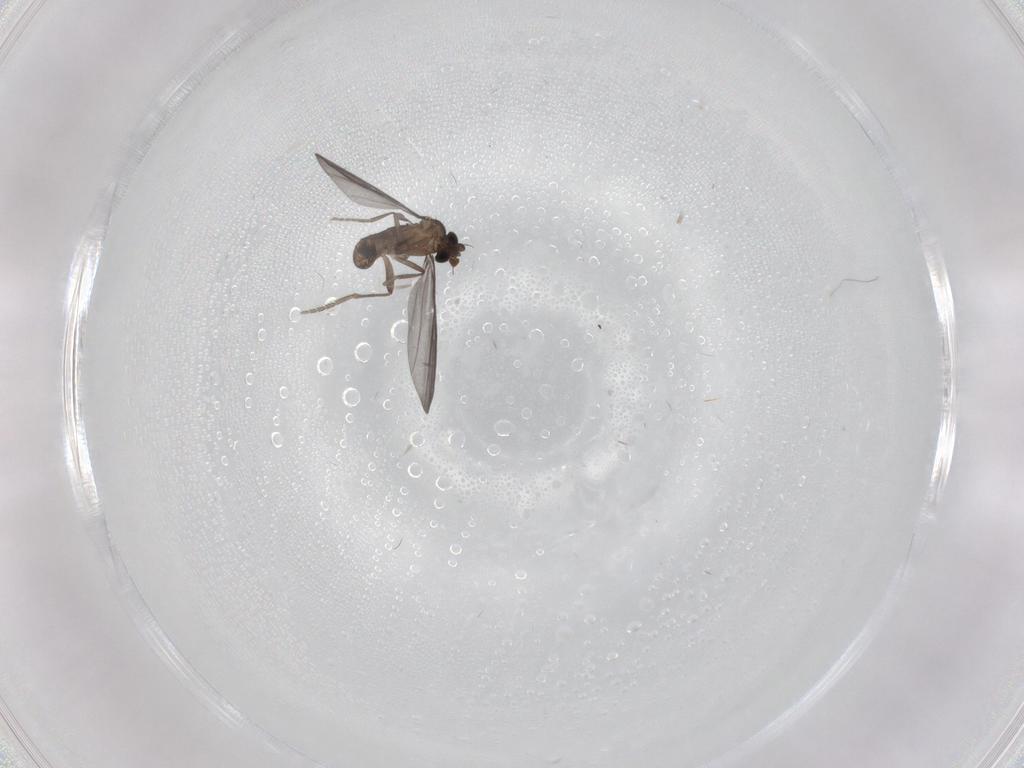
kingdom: Animalia
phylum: Arthropoda
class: Insecta
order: Diptera
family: Phoridae
